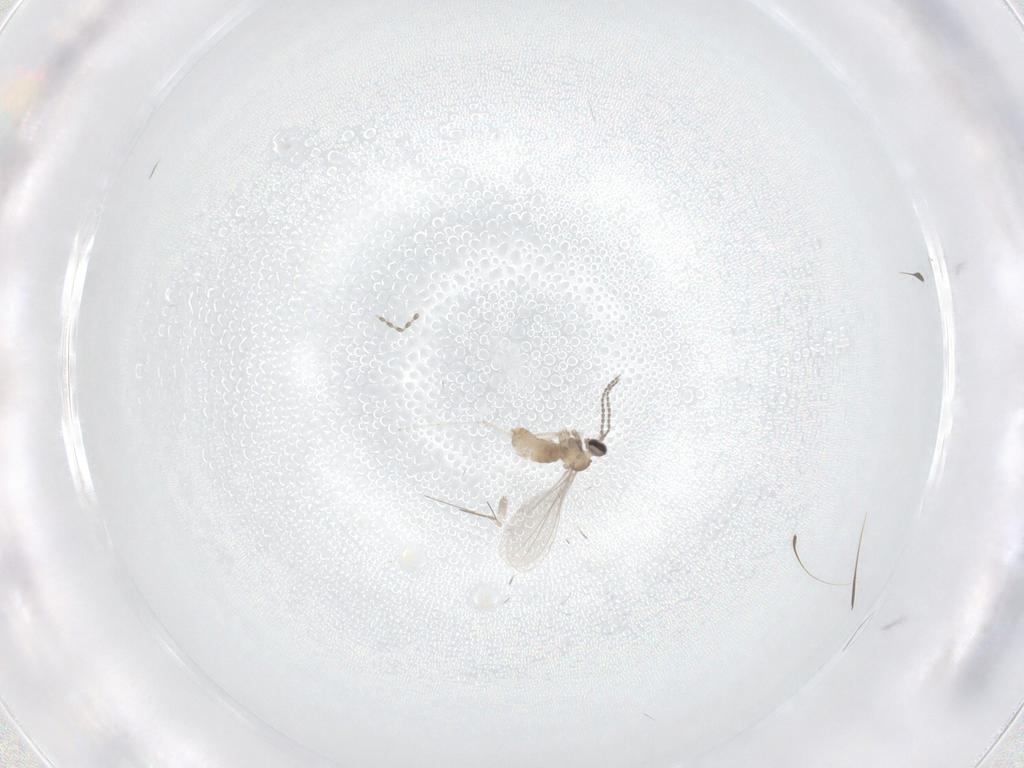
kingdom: Animalia
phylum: Arthropoda
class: Insecta
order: Diptera
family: Cecidomyiidae
